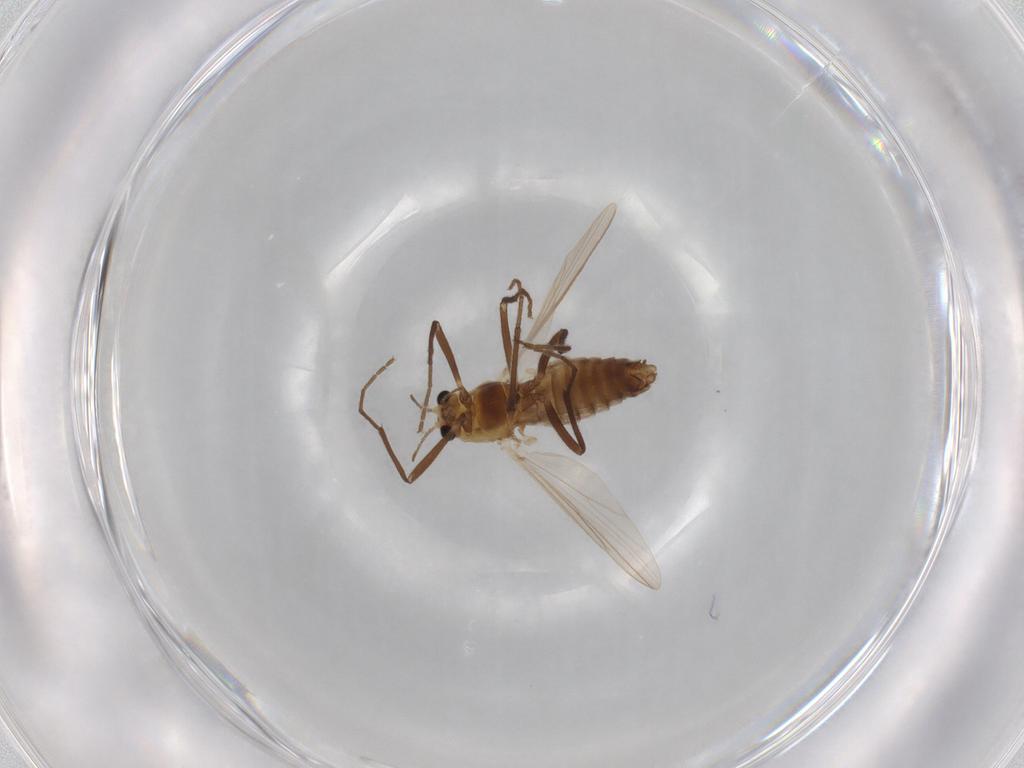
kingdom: Animalia
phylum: Arthropoda
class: Insecta
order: Diptera
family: Chironomidae
